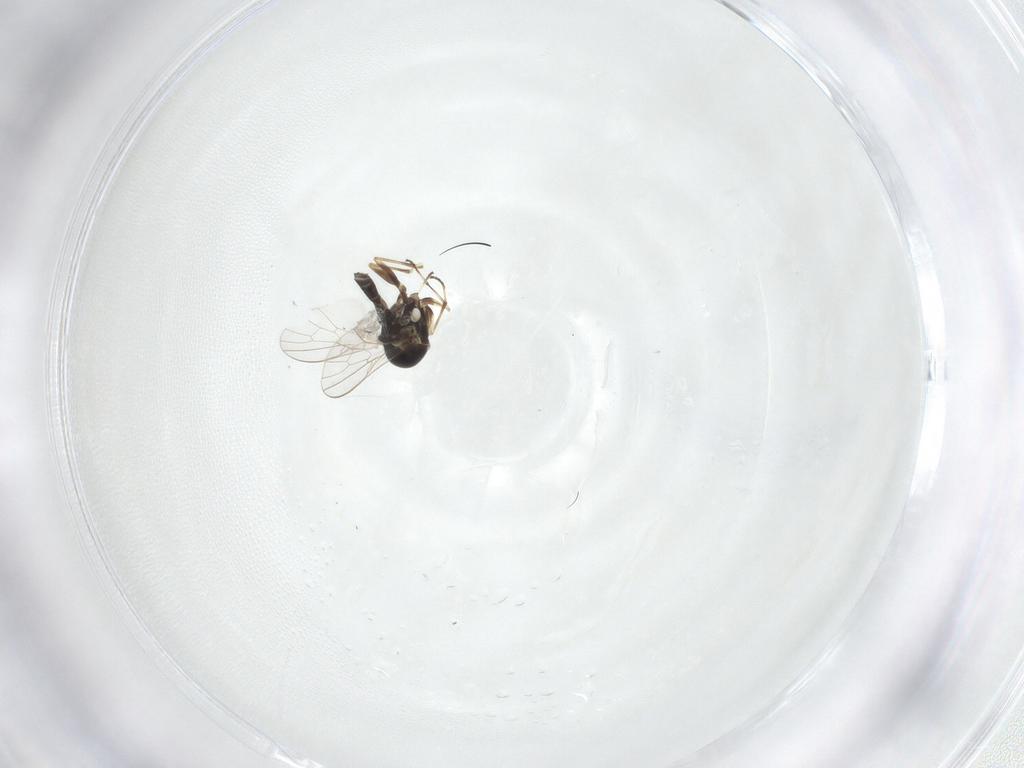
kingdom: Animalia
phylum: Arthropoda
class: Insecta
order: Diptera
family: Mythicomyiidae
